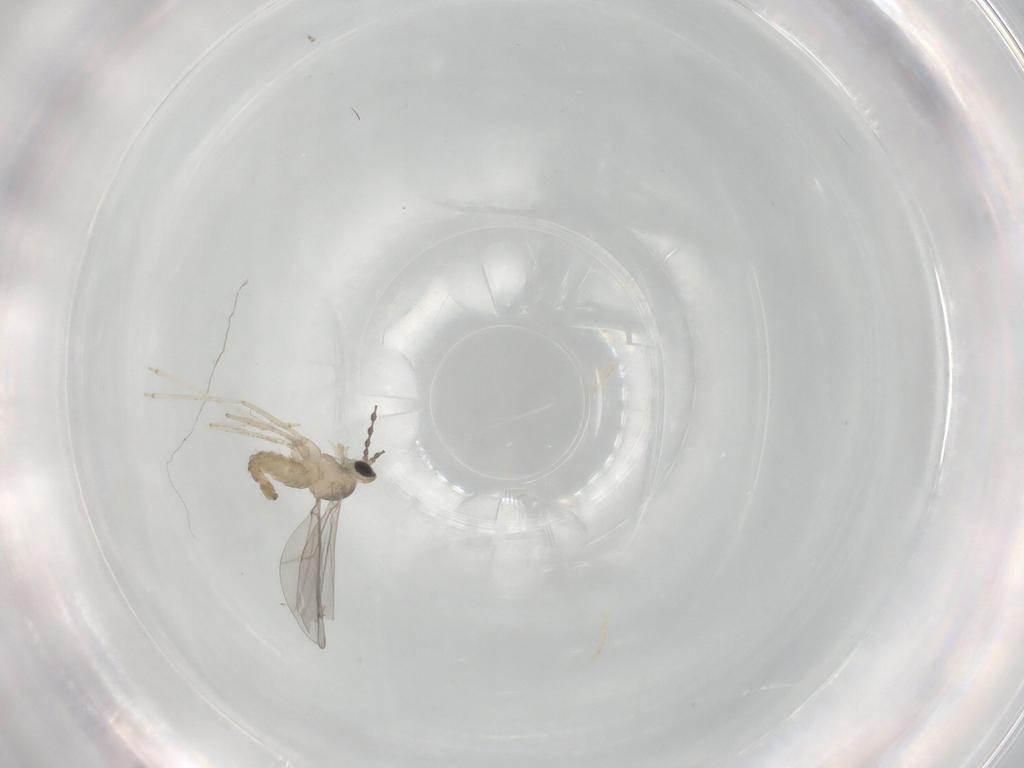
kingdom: Animalia
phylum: Arthropoda
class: Insecta
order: Diptera
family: Cecidomyiidae
